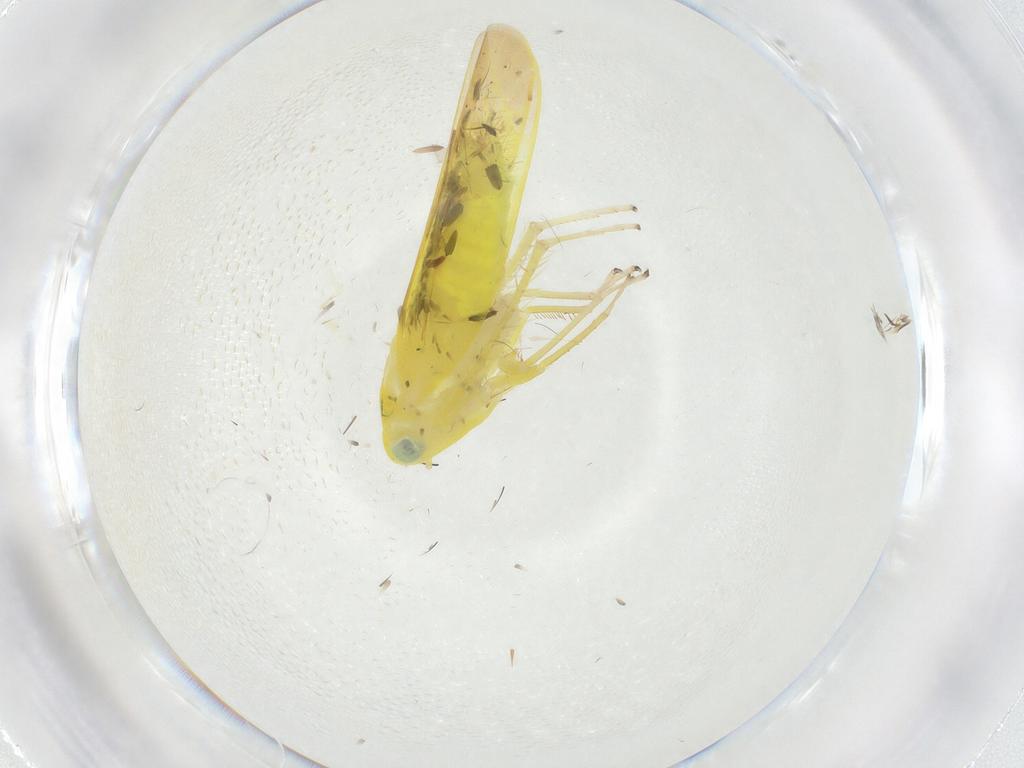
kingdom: Animalia
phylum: Arthropoda
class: Insecta
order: Hemiptera
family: Cicadellidae
